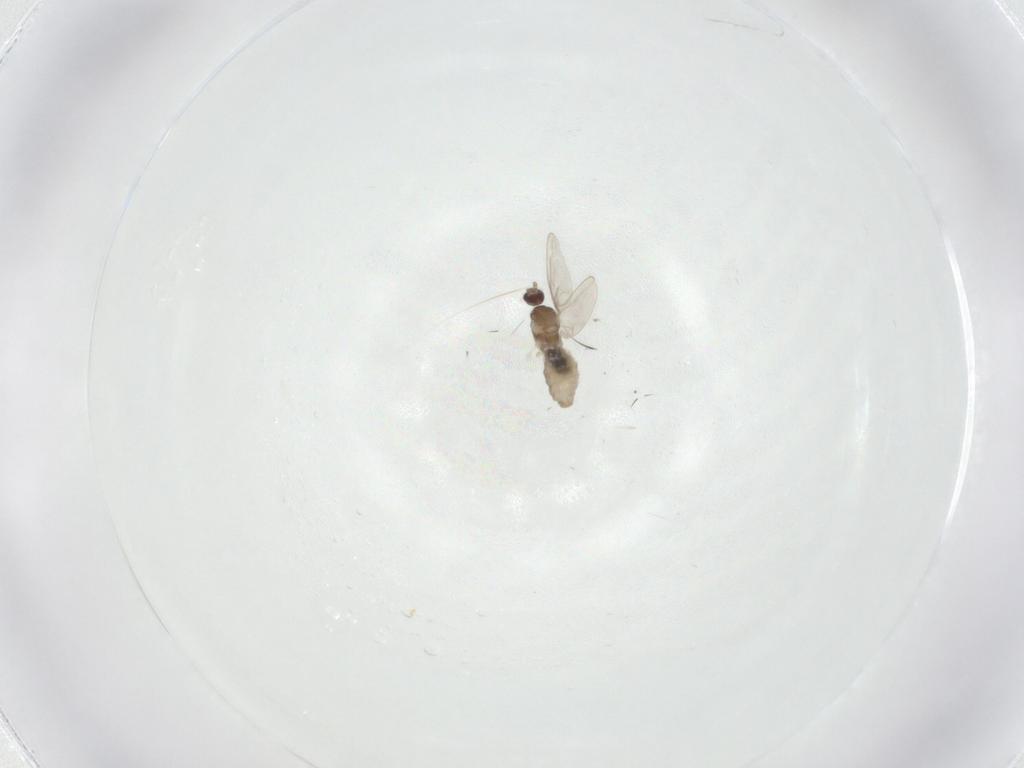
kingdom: Animalia
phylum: Arthropoda
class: Insecta
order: Diptera
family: Cecidomyiidae
